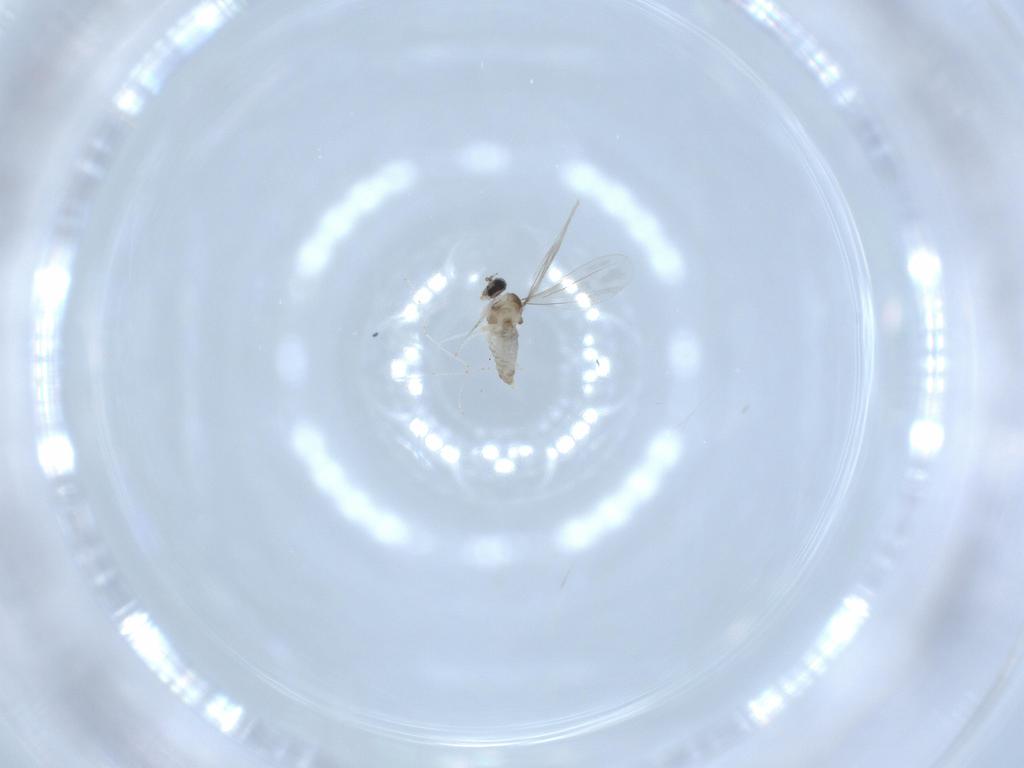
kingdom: Animalia
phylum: Arthropoda
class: Insecta
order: Diptera
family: Cecidomyiidae
